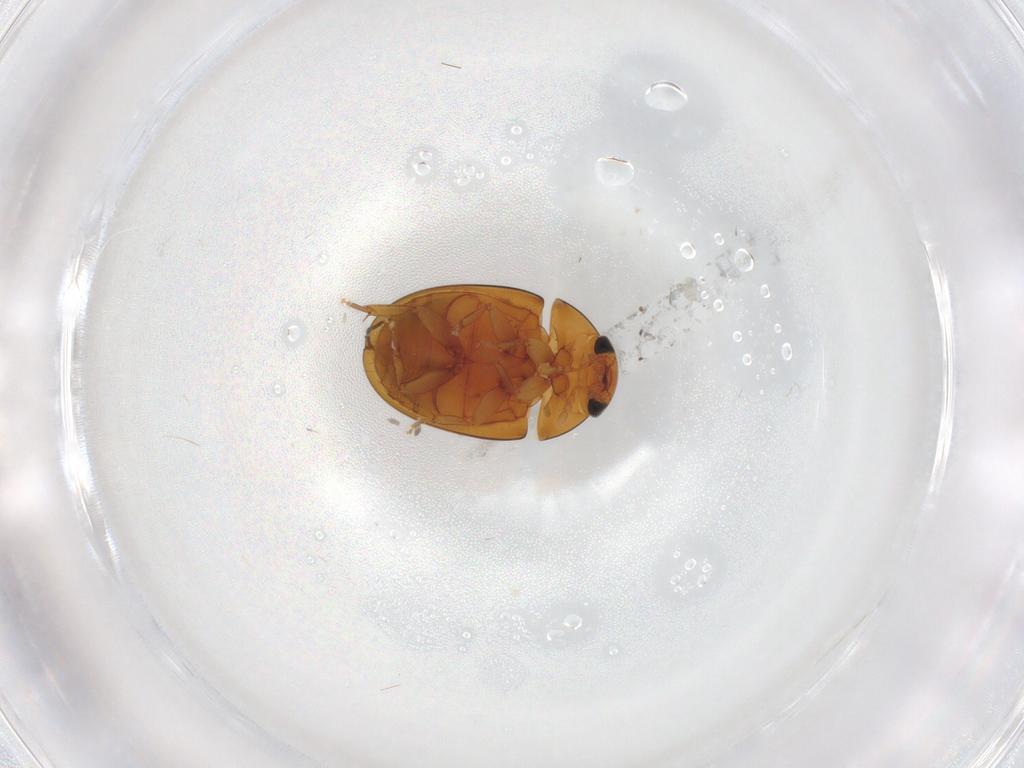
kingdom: Animalia
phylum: Arthropoda
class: Insecta
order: Coleoptera
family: Phalacridae
